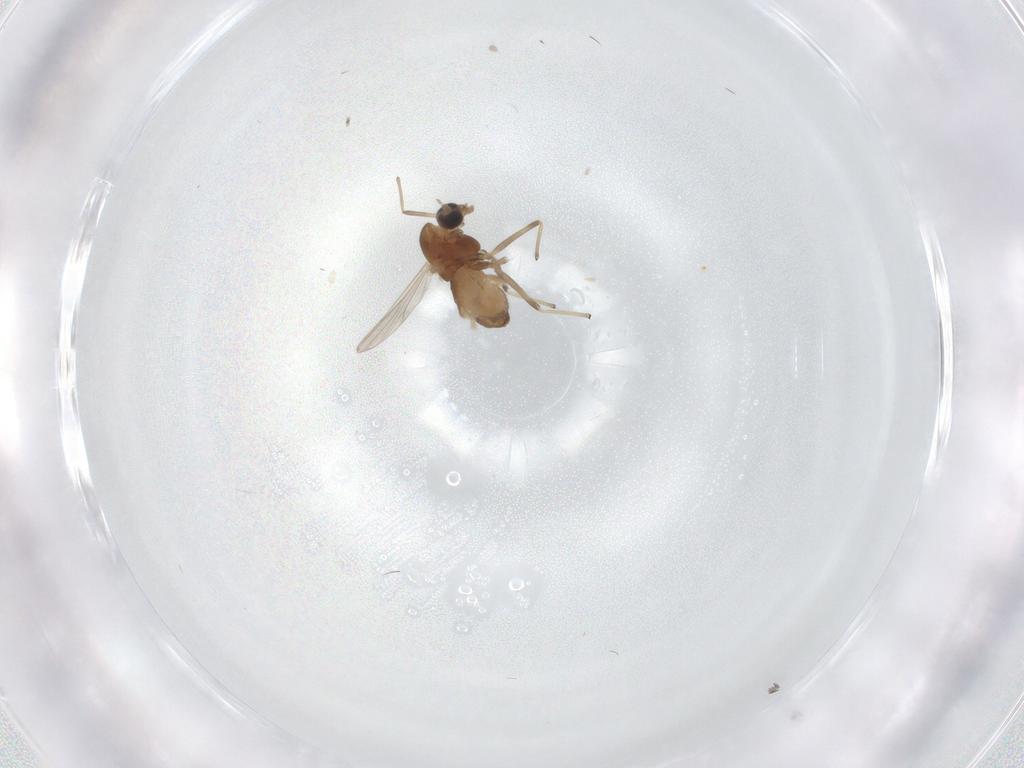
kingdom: Animalia
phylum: Arthropoda
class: Insecta
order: Diptera
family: Chironomidae
